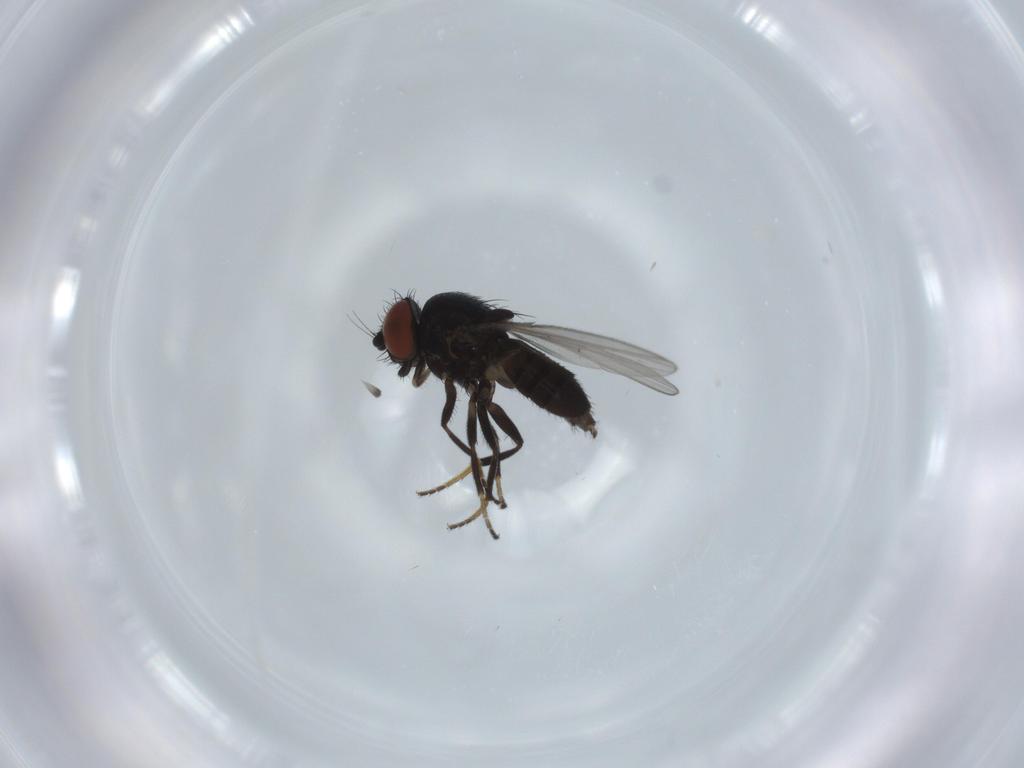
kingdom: Animalia
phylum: Arthropoda
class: Insecta
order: Diptera
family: Milichiidae
